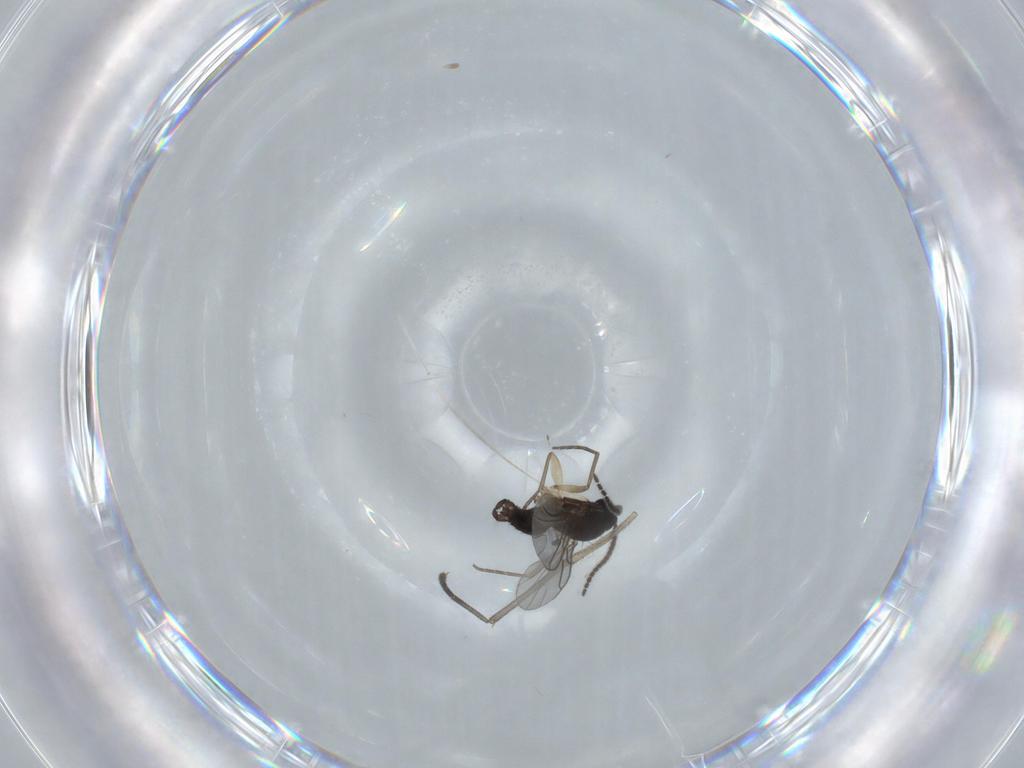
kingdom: Animalia
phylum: Arthropoda
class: Insecta
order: Diptera
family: Sciaridae
